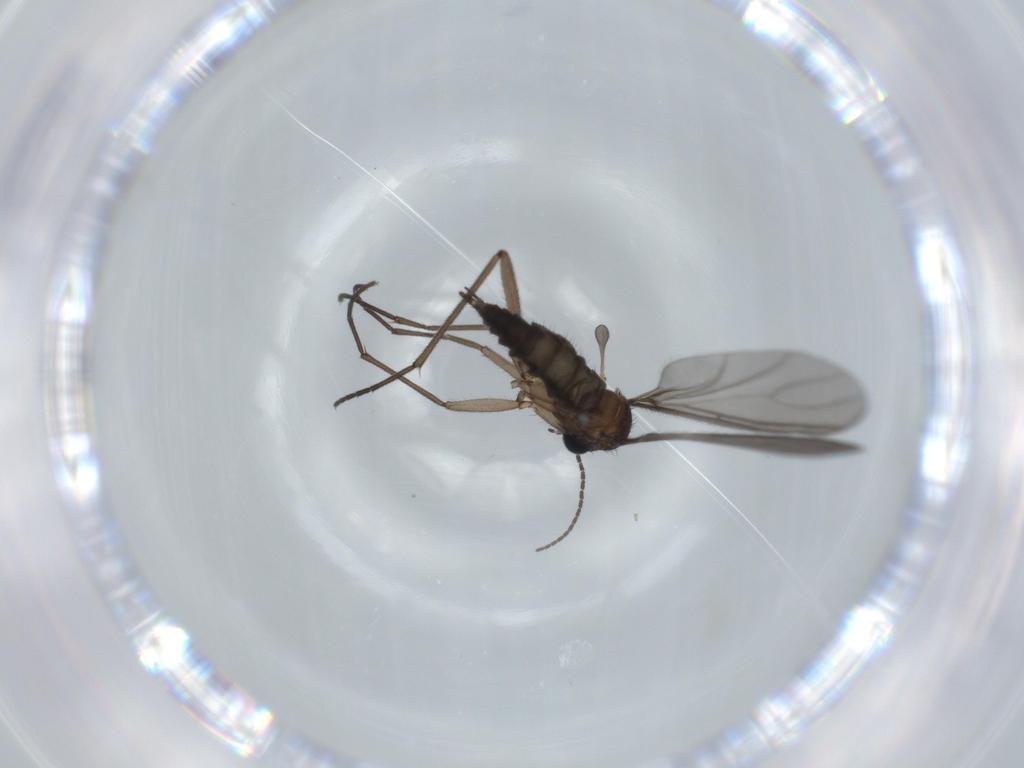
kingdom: Animalia
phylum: Arthropoda
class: Insecta
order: Diptera
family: Sciaridae
